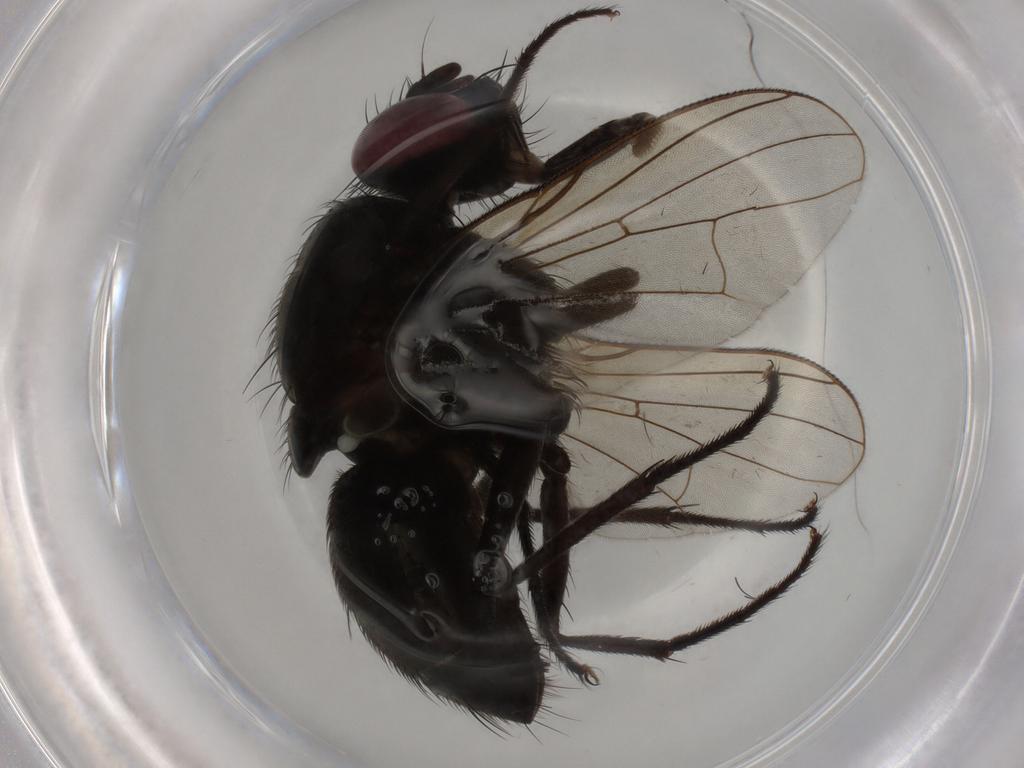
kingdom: Animalia
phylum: Arthropoda
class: Insecta
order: Diptera
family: Muscidae
